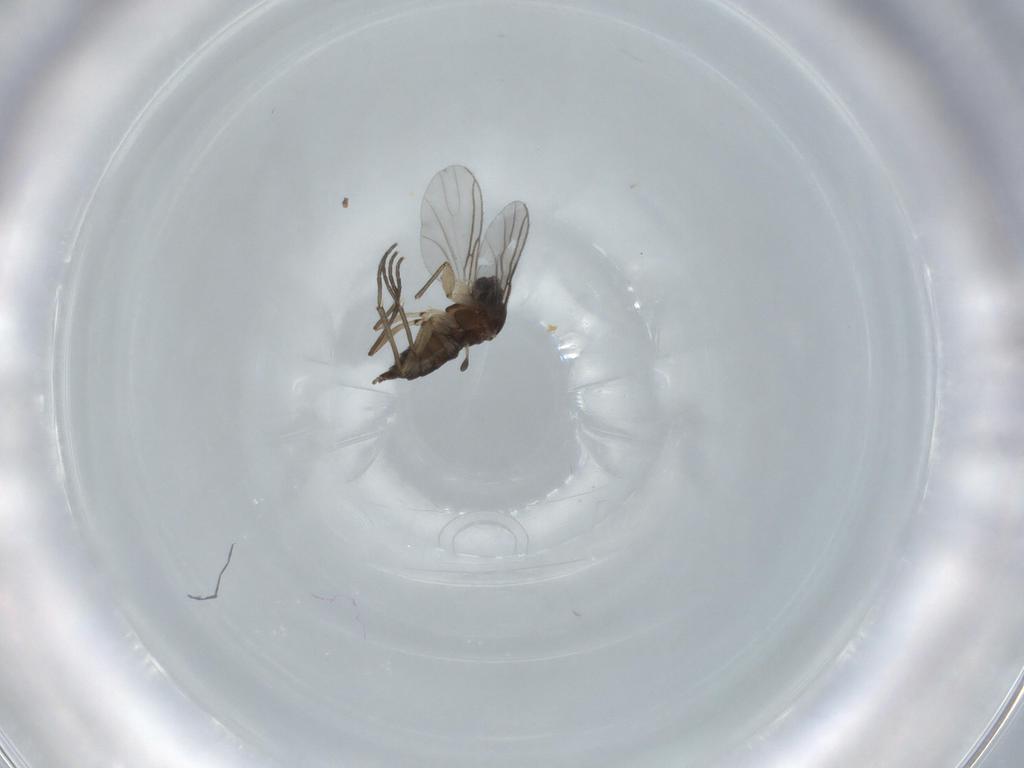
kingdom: Animalia
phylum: Arthropoda
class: Insecta
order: Diptera
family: Sciaridae
